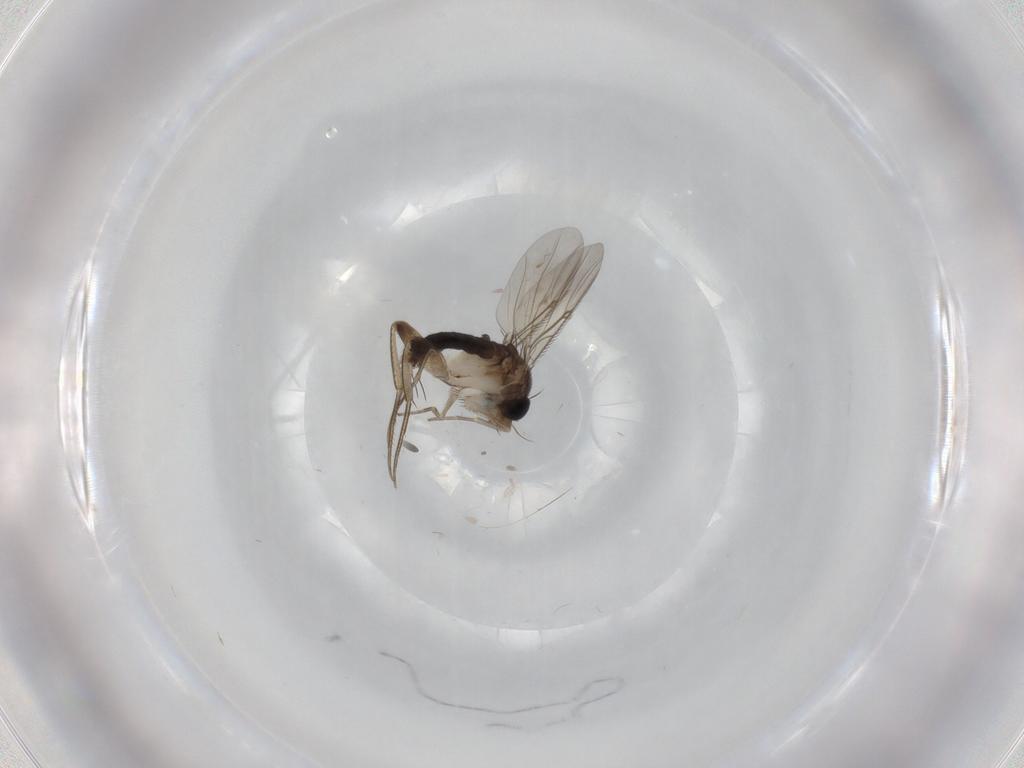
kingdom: Animalia
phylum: Arthropoda
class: Insecta
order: Diptera
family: Phoridae
